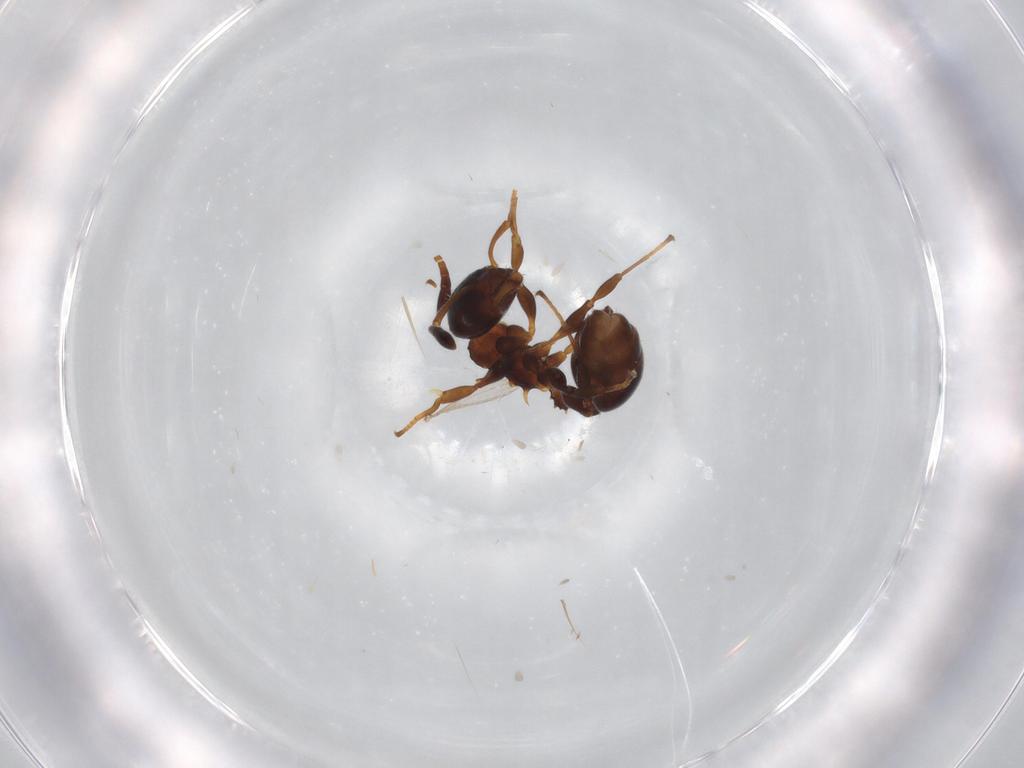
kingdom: Animalia
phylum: Arthropoda
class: Insecta
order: Hymenoptera
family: Formicidae
